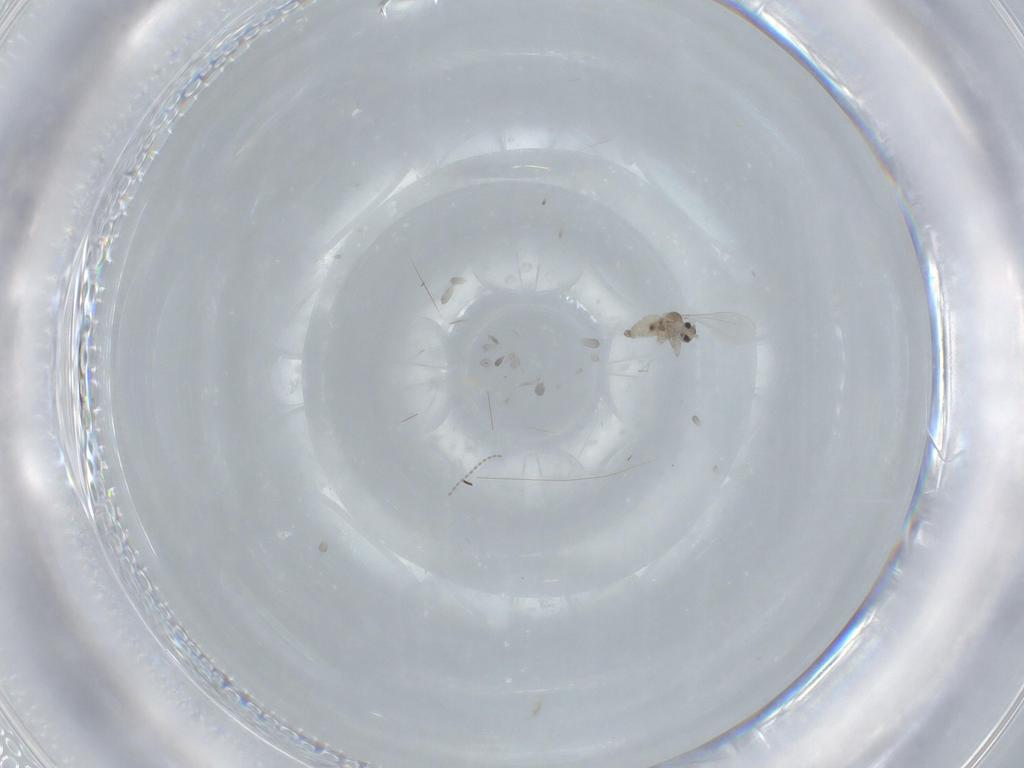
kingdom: Animalia
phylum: Arthropoda
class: Insecta
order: Diptera
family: Cecidomyiidae
